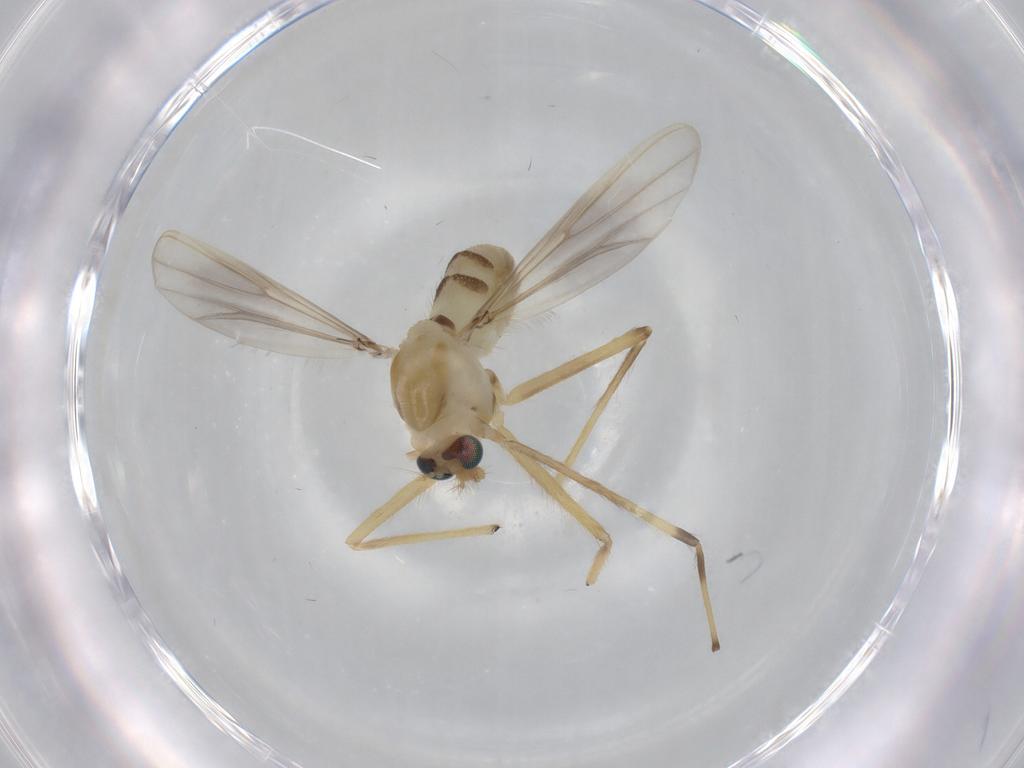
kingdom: Animalia
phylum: Arthropoda
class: Insecta
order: Diptera
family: Chironomidae
